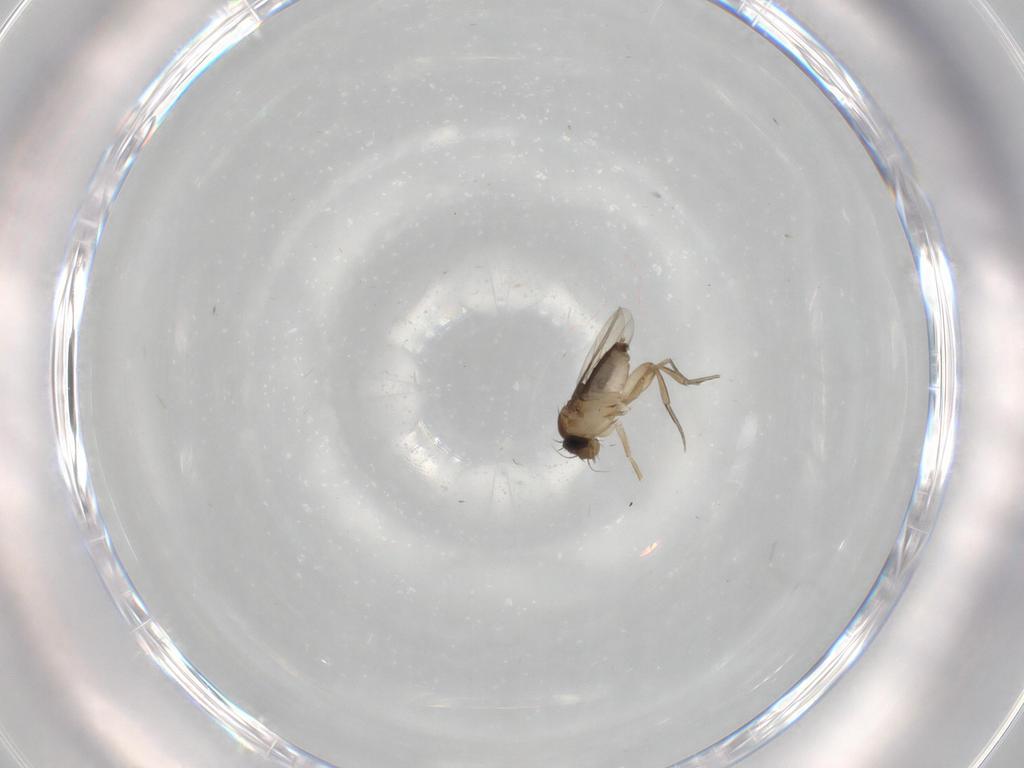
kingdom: Animalia
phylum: Arthropoda
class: Insecta
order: Diptera
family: Phoridae
